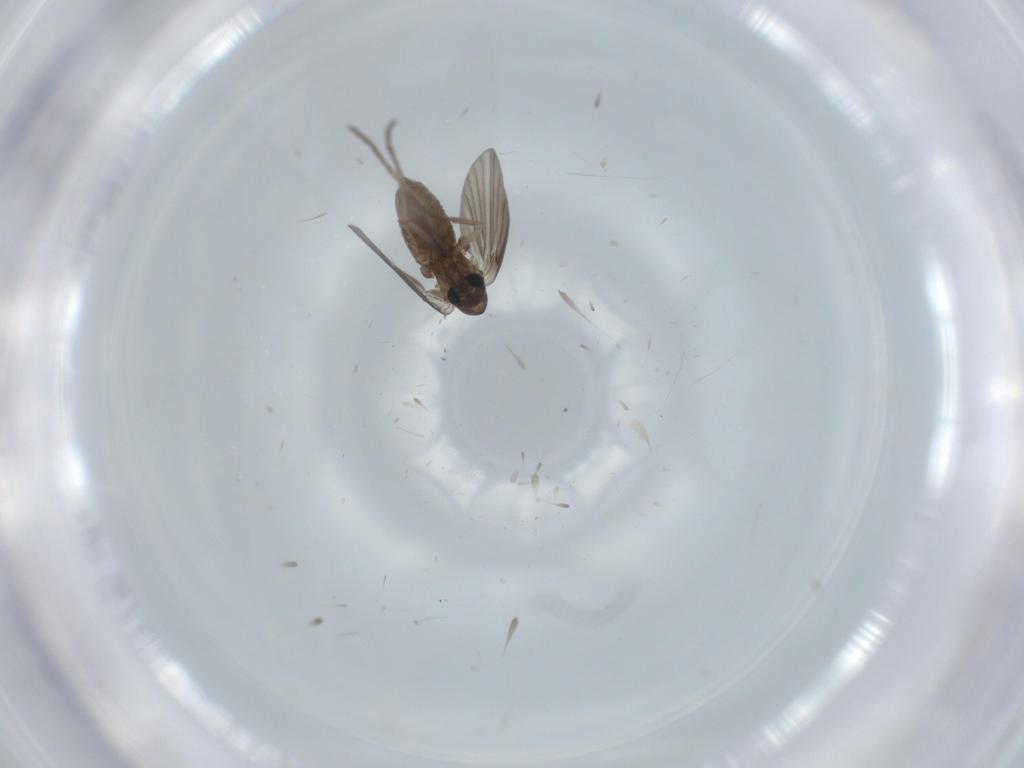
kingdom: Animalia
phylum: Arthropoda
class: Insecta
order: Diptera
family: Psychodidae
